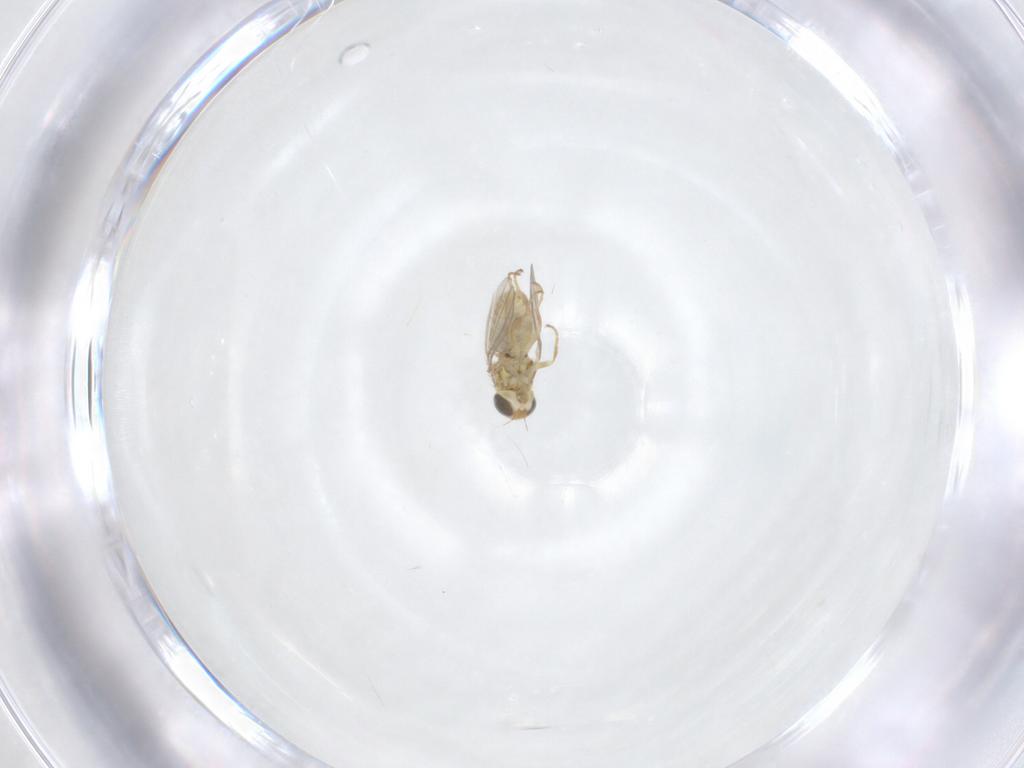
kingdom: Animalia
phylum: Arthropoda
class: Insecta
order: Diptera
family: Chyromyidae
